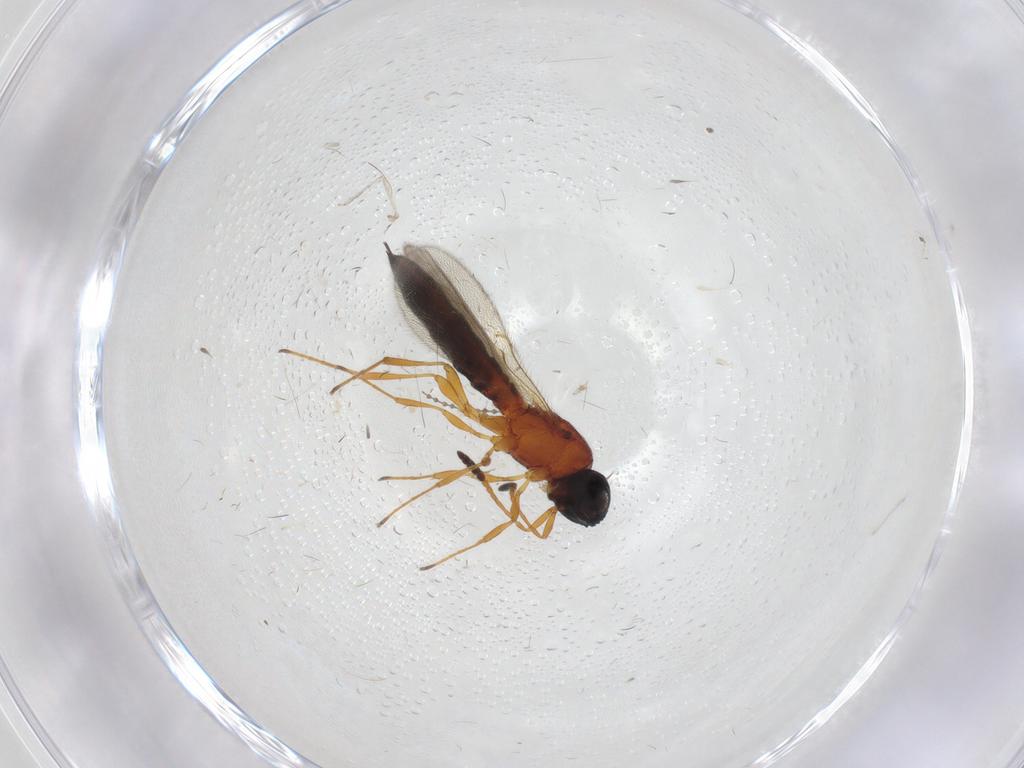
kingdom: Animalia
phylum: Arthropoda
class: Insecta
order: Hymenoptera
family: Scelionidae
